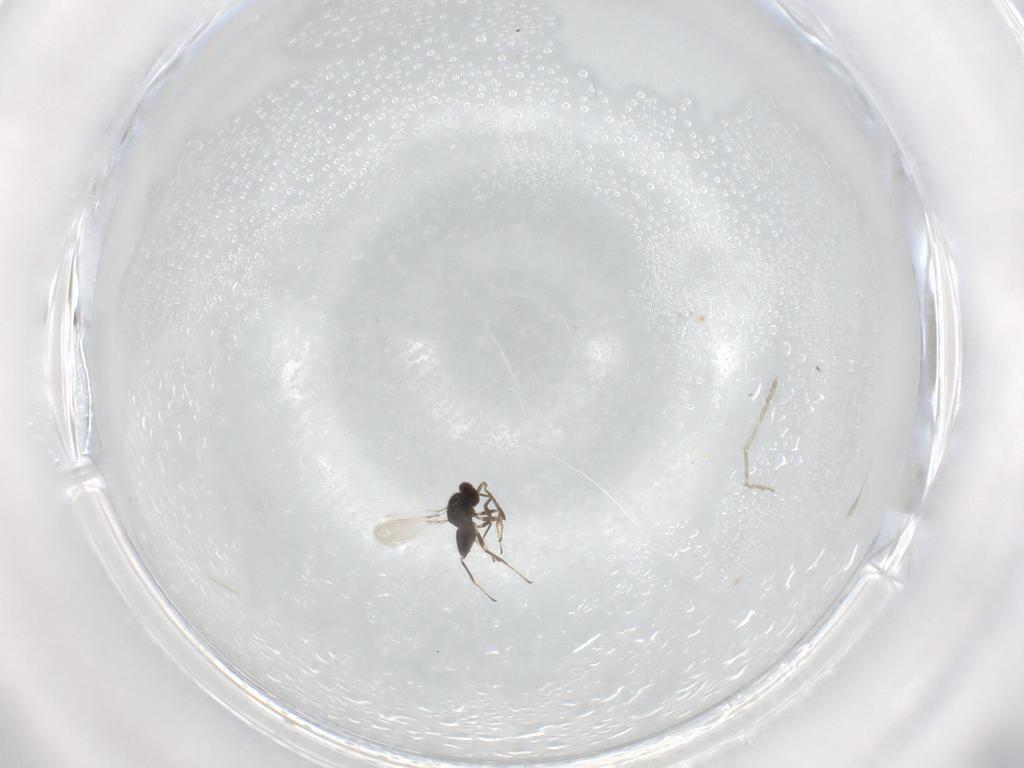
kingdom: Animalia
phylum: Arthropoda
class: Insecta
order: Hymenoptera
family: Mymaridae
